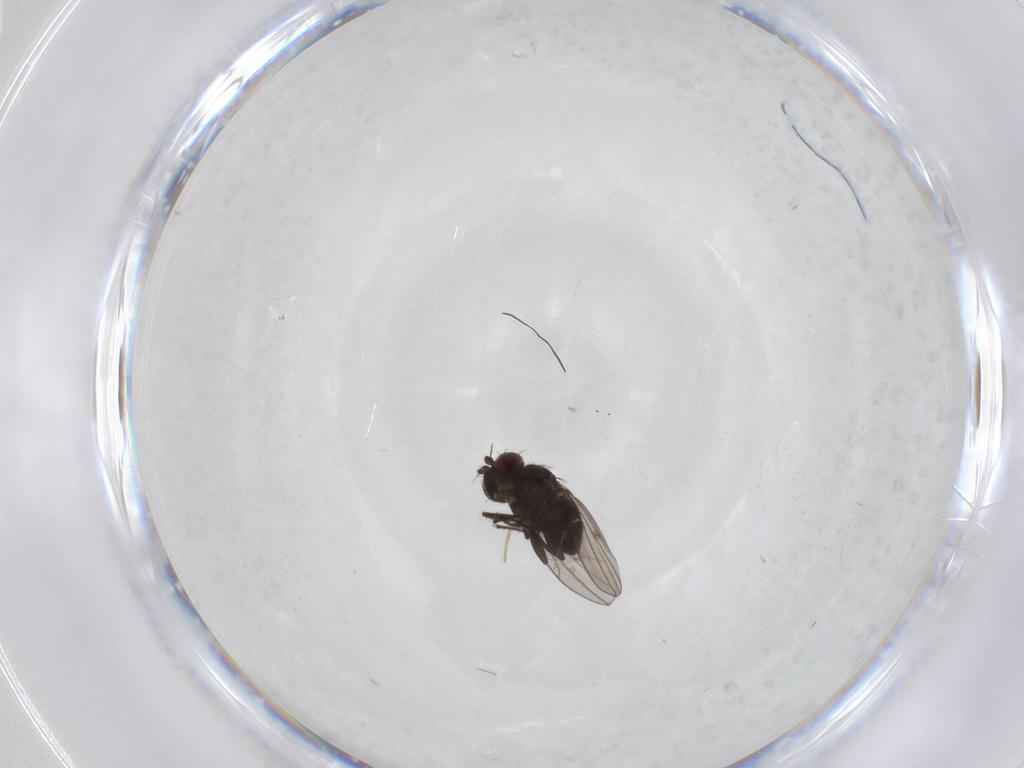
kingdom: Animalia
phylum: Arthropoda
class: Insecta
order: Diptera
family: Ephydridae
